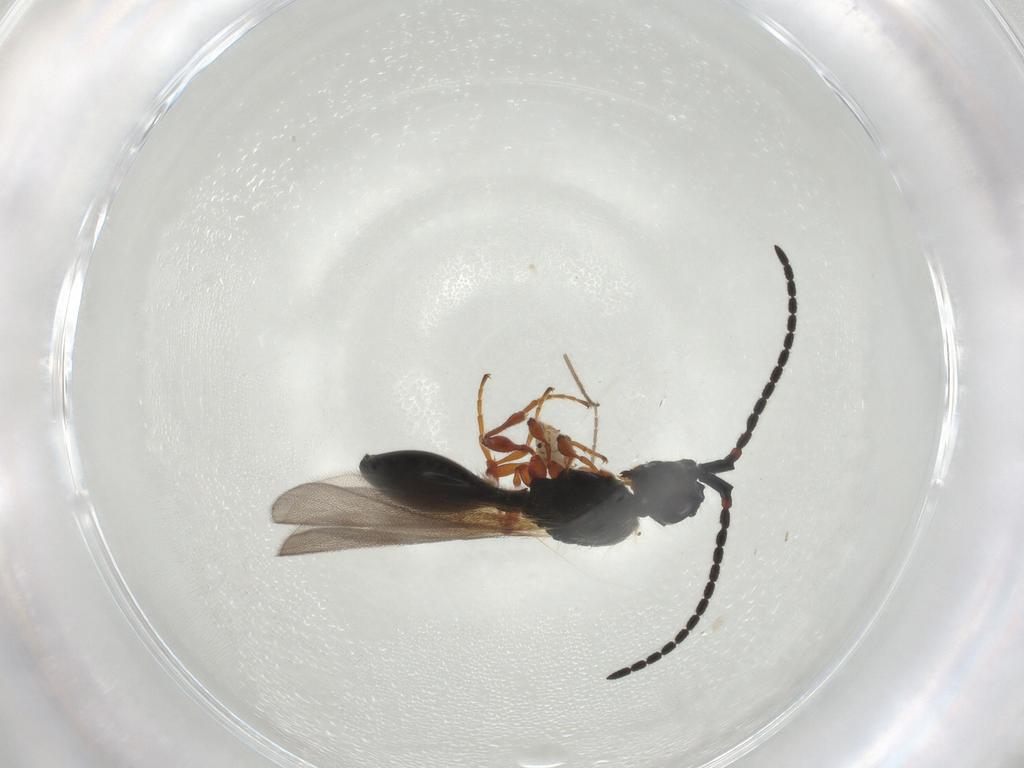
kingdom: Animalia
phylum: Arthropoda
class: Insecta
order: Hymenoptera
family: Diapriidae
